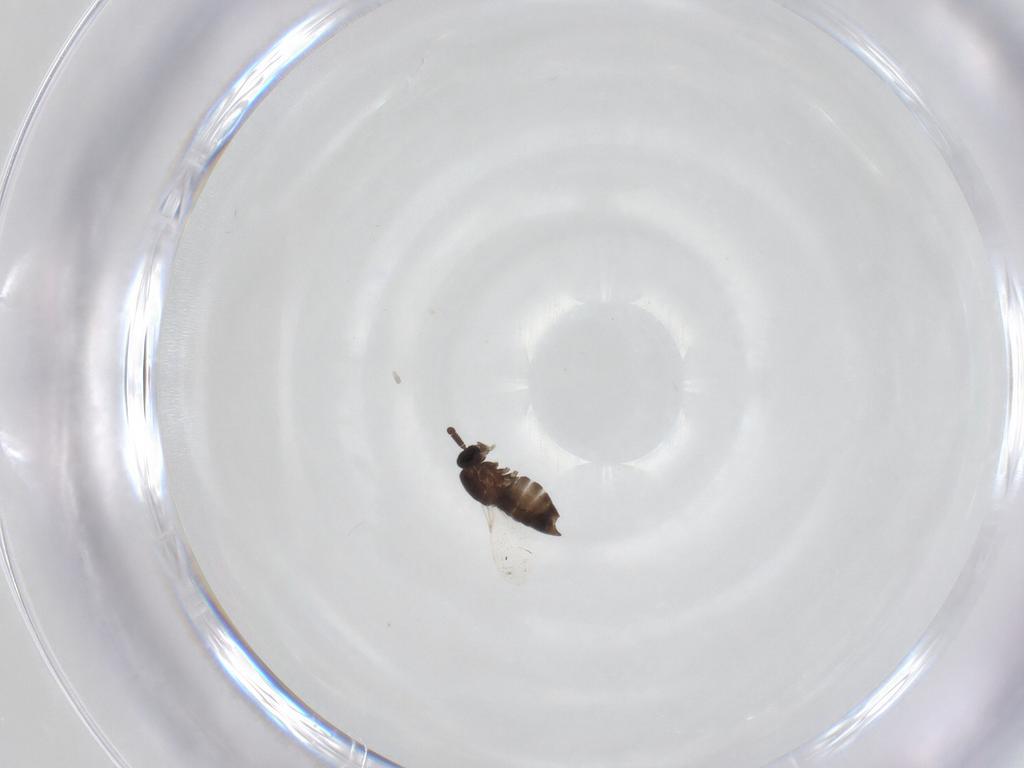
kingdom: Animalia
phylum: Arthropoda
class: Insecta
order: Diptera
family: Scatopsidae
